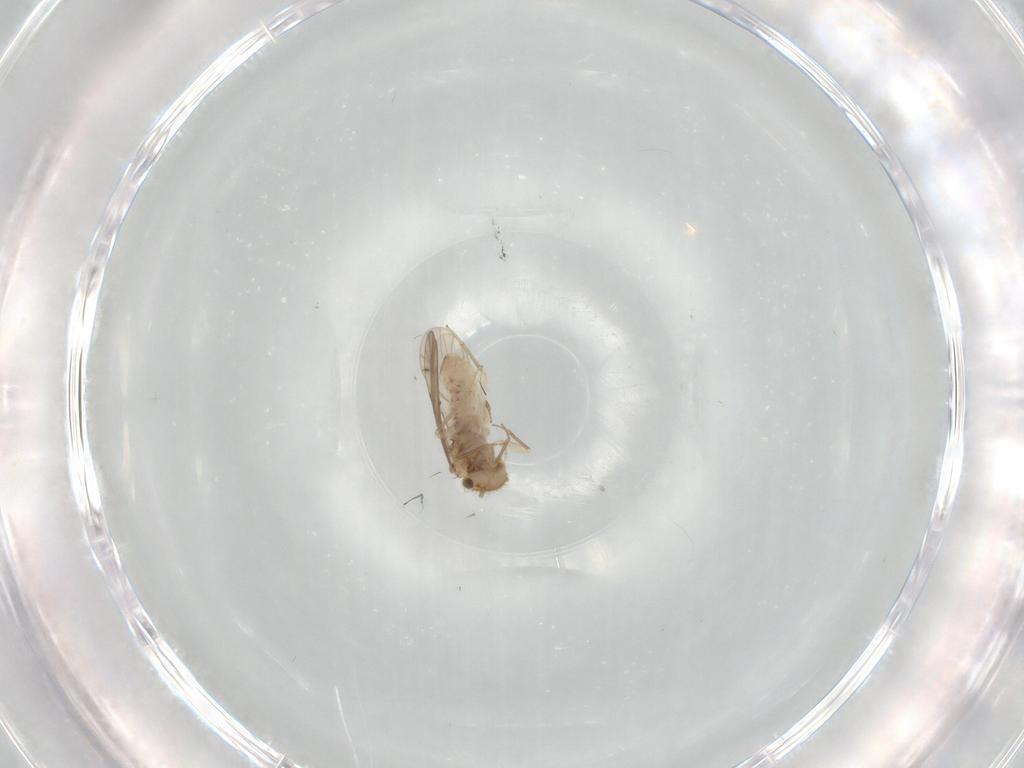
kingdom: Animalia
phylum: Arthropoda
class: Insecta
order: Psocodea
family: Ectopsocidae
